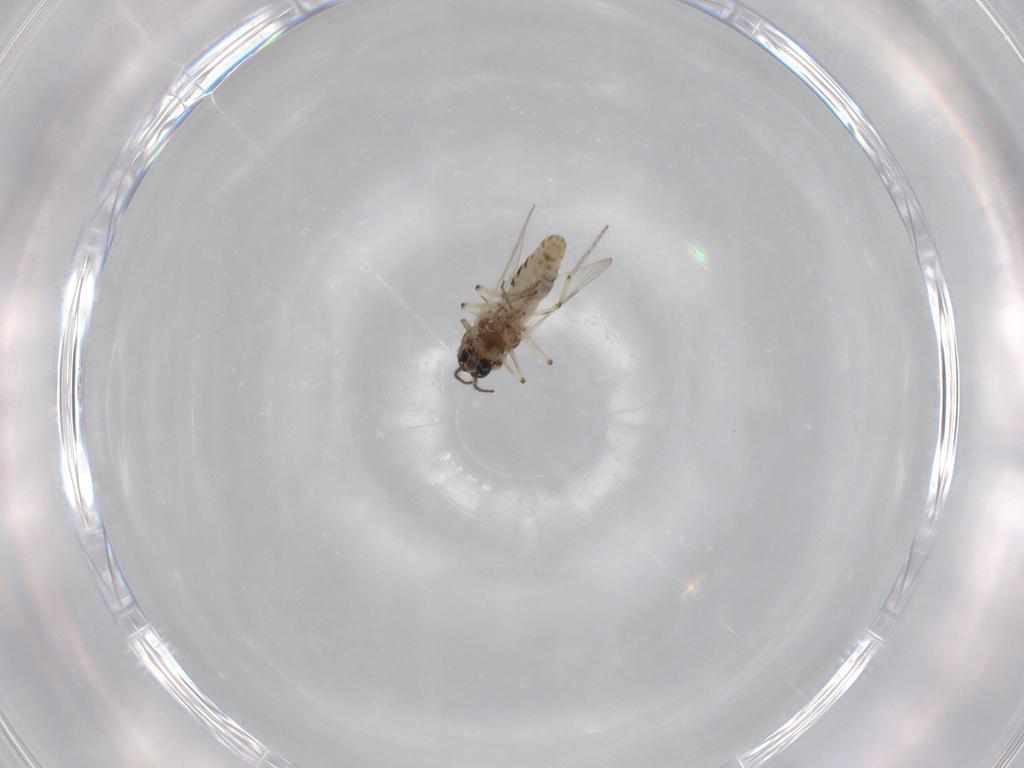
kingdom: Animalia
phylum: Arthropoda
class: Insecta
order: Diptera
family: Ceratopogonidae
